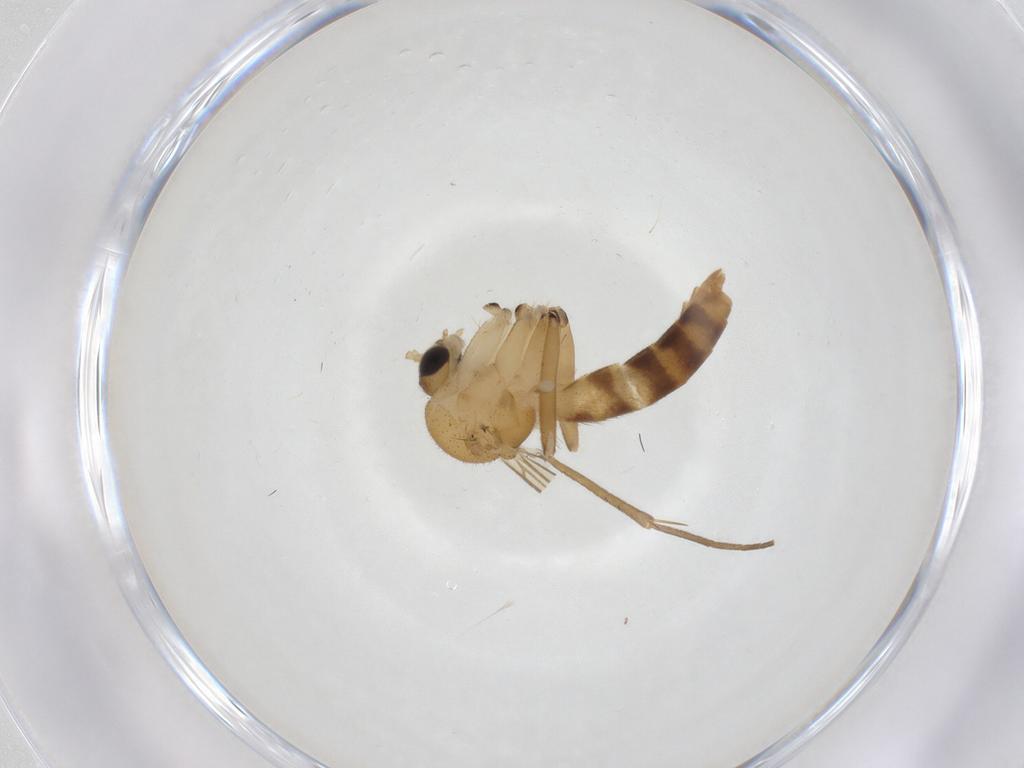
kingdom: Animalia
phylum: Arthropoda
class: Insecta
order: Diptera
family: Mycetophilidae
